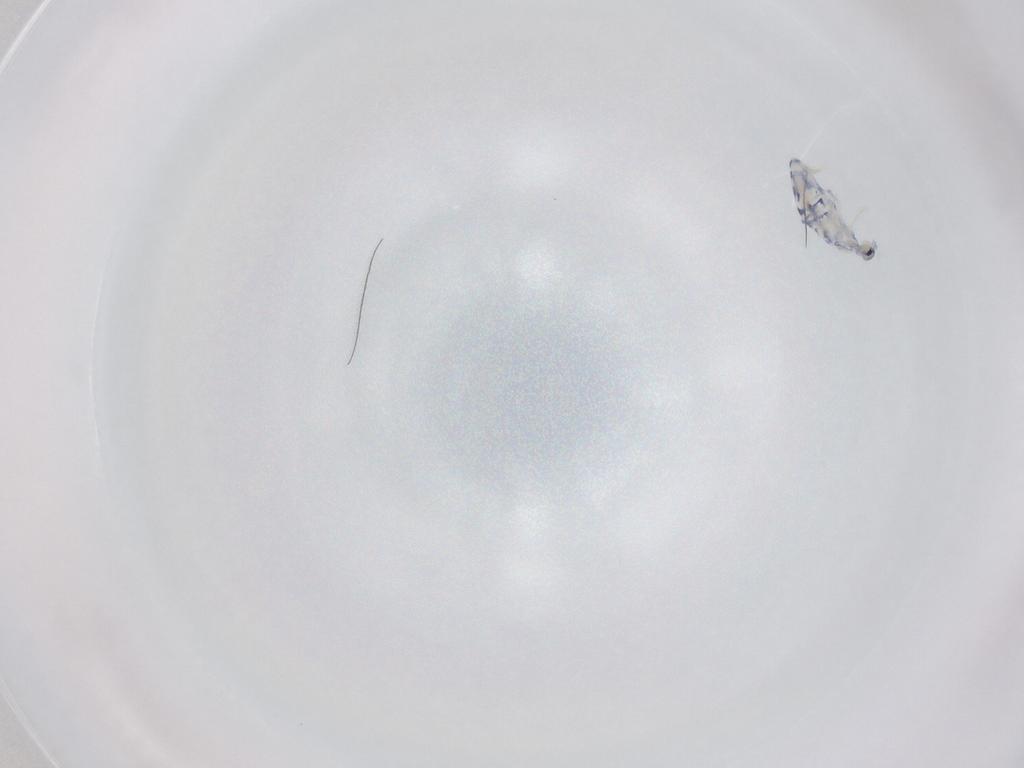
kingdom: Animalia
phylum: Arthropoda
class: Collembola
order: Entomobryomorpha
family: Entomobryidae
